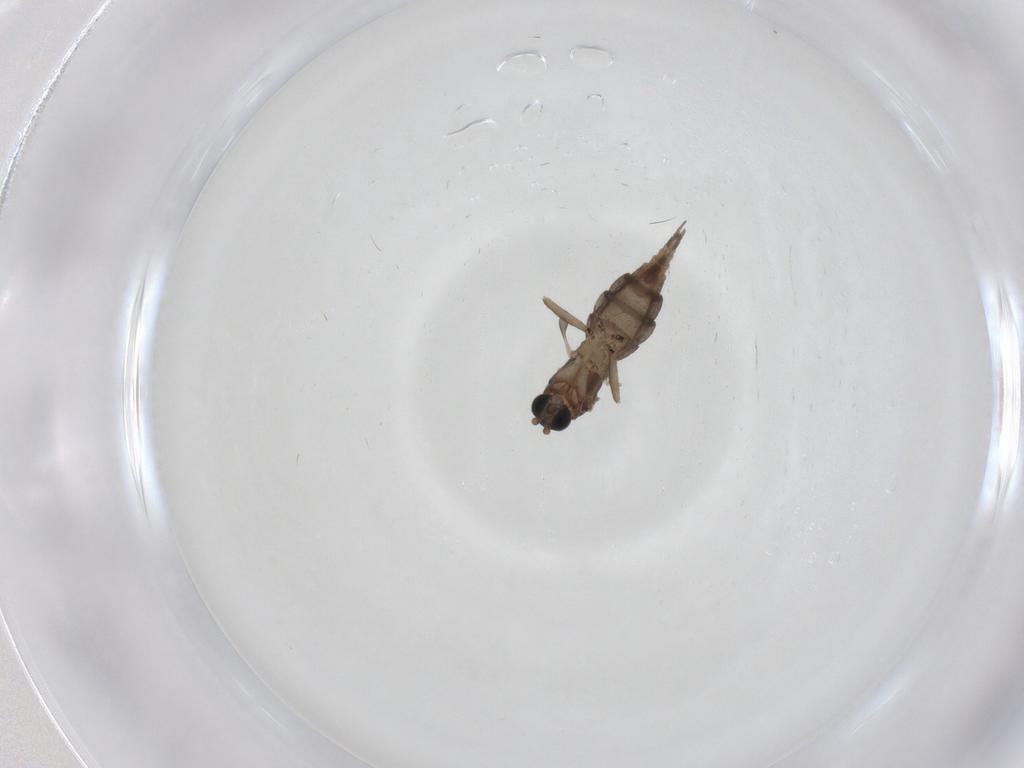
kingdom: Animalia
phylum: Arthropoda
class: Insecta
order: Diptera
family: Sciaridae
